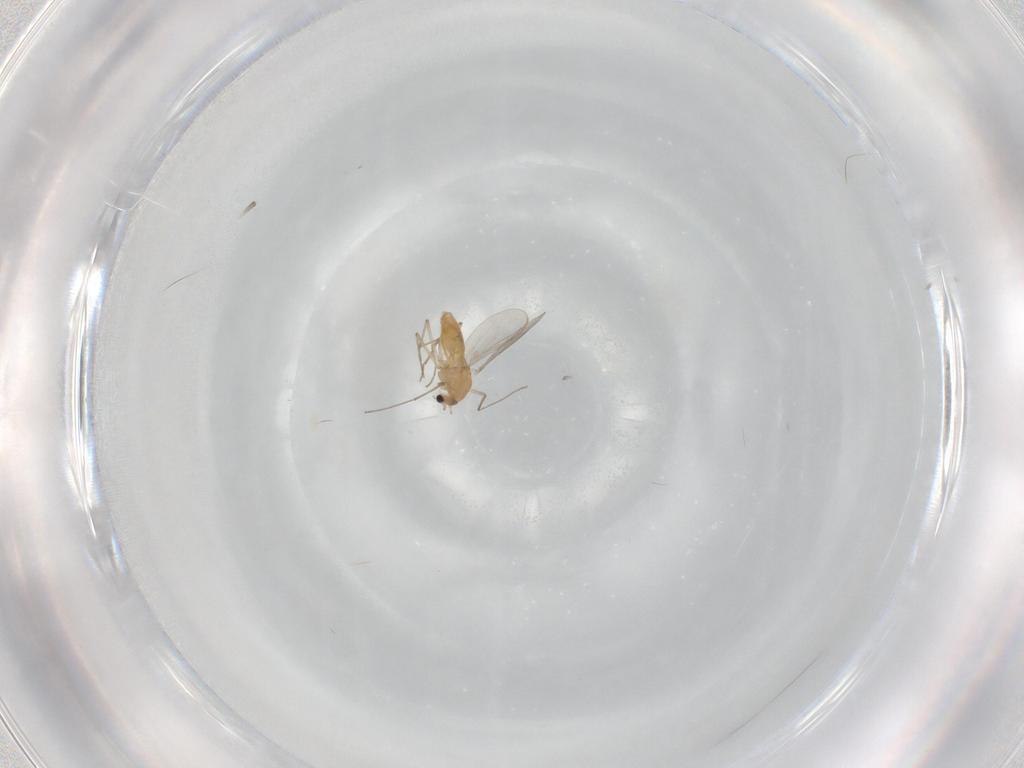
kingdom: Animalia
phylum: Arthropoda
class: Insecta
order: Diptera
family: Chironomidae
